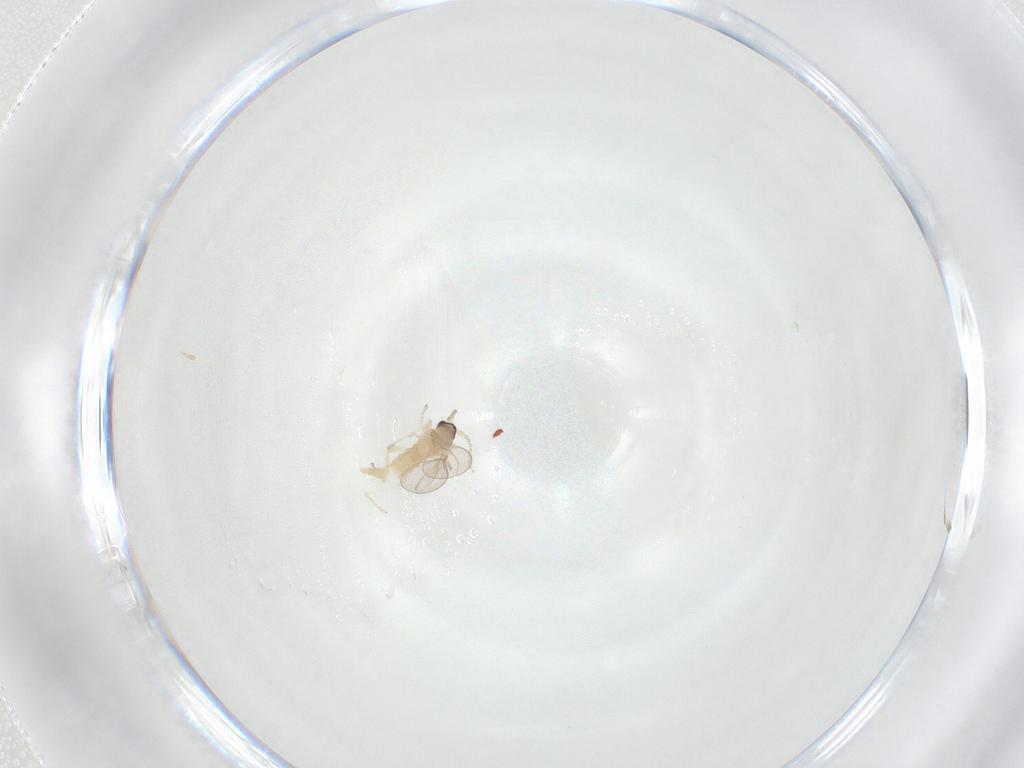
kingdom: Animalia
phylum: Arthropoda
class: Insecta
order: Diptera
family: Cecidomyiidae
